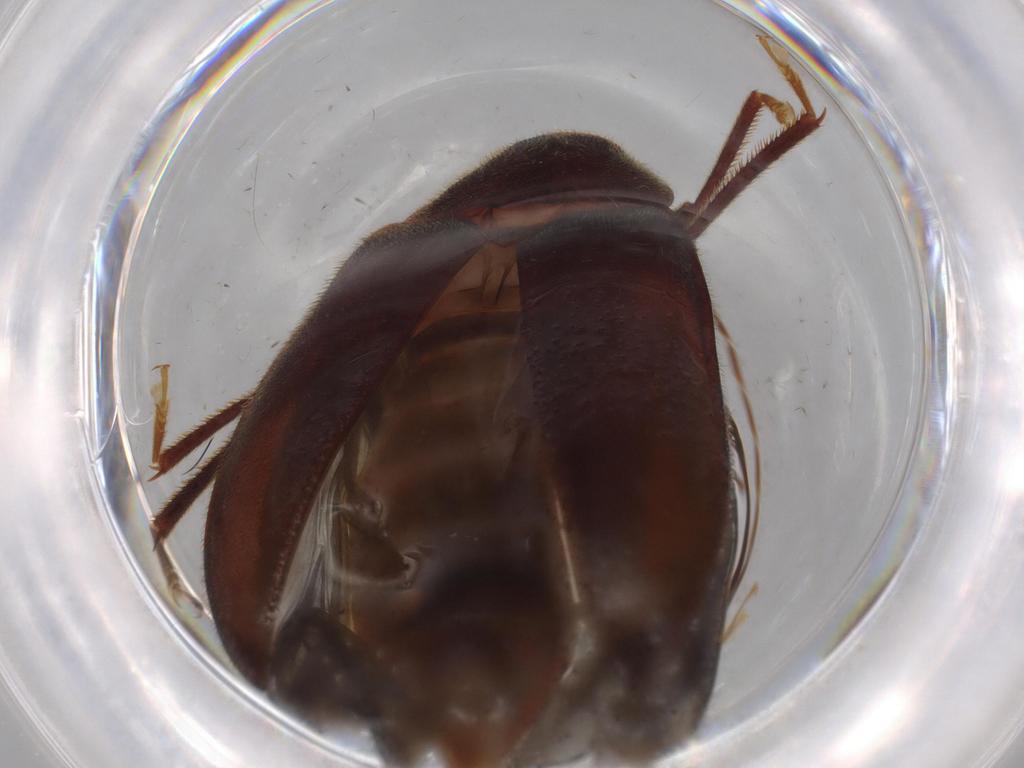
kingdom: Animalia
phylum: Arthropoda
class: Insecta
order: Coleoptera
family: Ptilodactylidae
